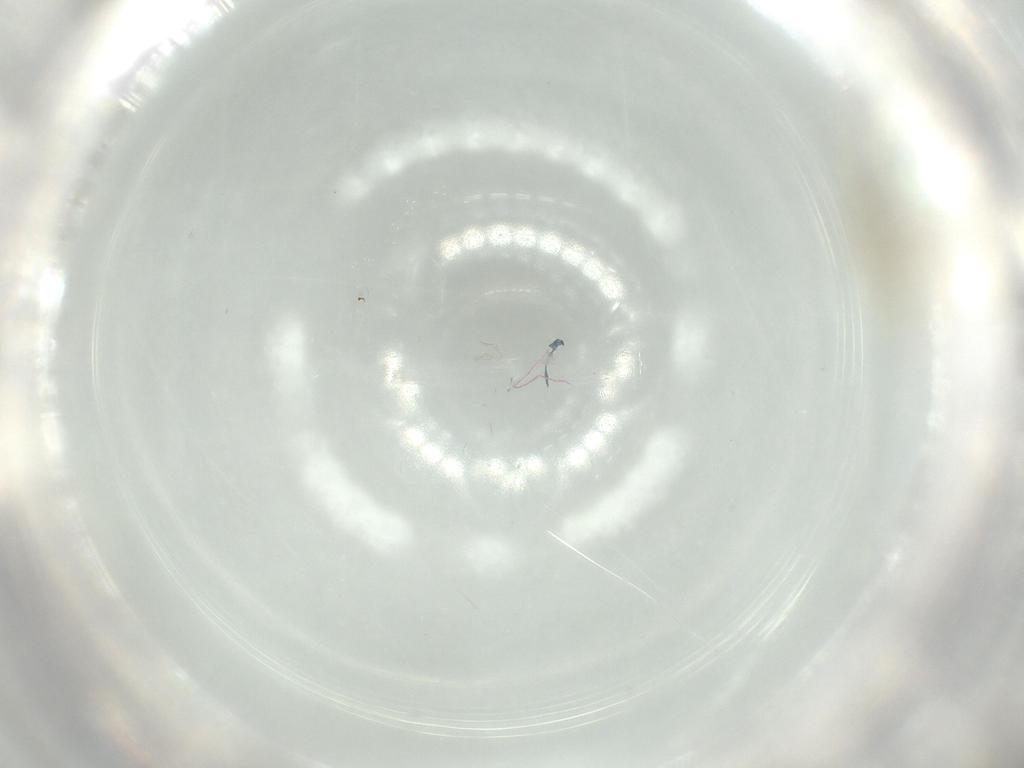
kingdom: Animalia
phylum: Arthropoda
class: Insecta
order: Diptera
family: Chironomidae
